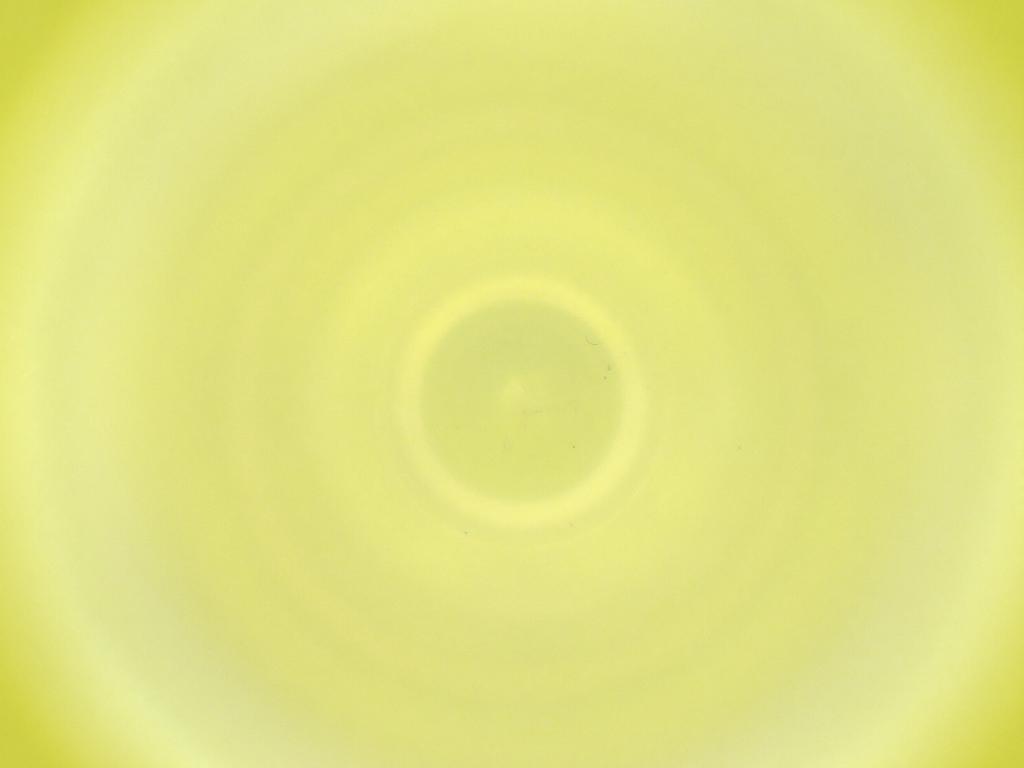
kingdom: Animalia
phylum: Arthropoda
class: Insecta
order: Diptera
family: Cecidomyiidae
